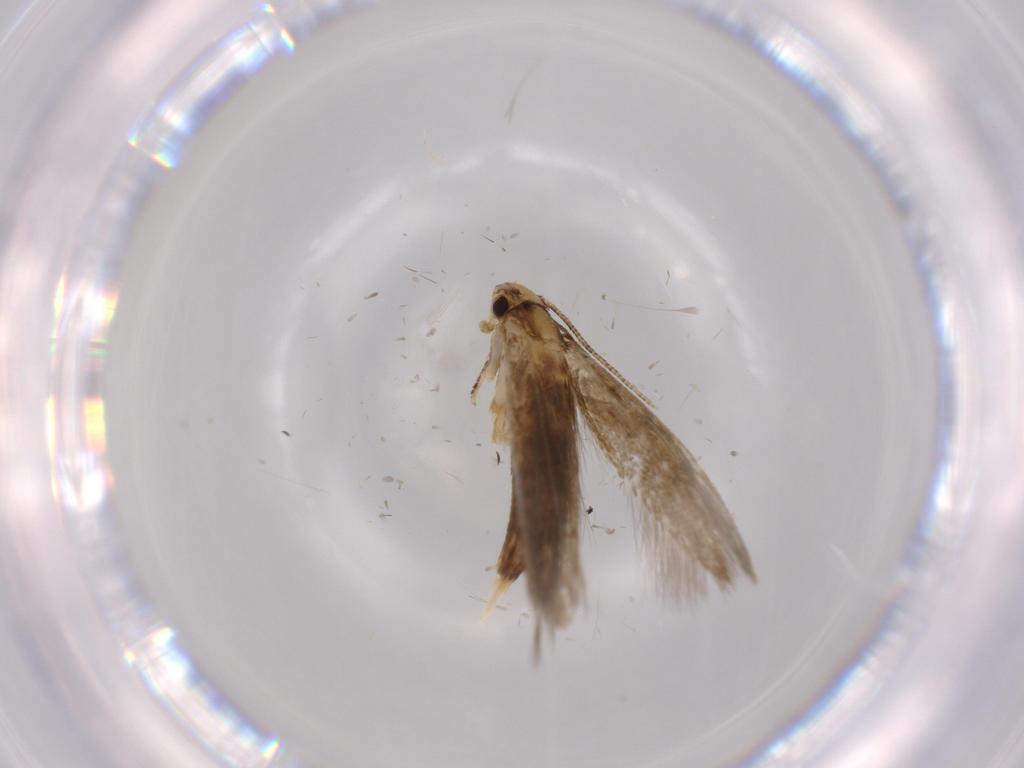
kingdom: Animalia
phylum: Arthropoda
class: Insecta
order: Lepidoptera
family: Tineidae
